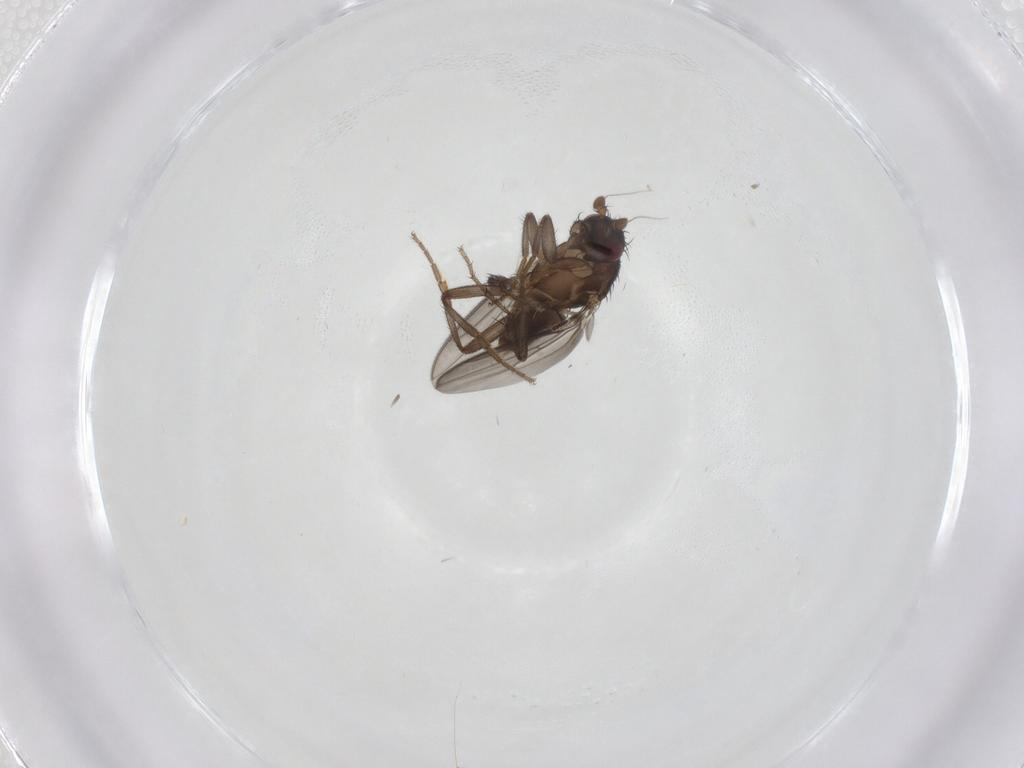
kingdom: Animalia
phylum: Arthropoda
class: Insecta
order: Diptera
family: Sphaeroceridae
